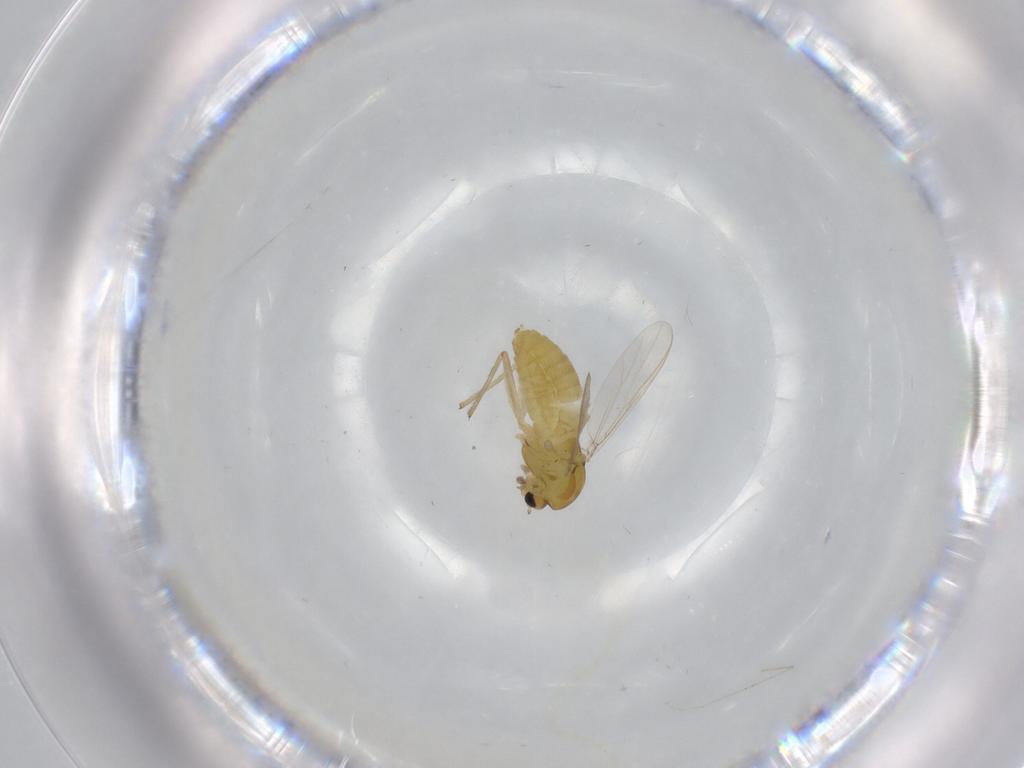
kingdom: Animalia
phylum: Arthropoda
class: Insecta
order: Diptera
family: Chironomidae
